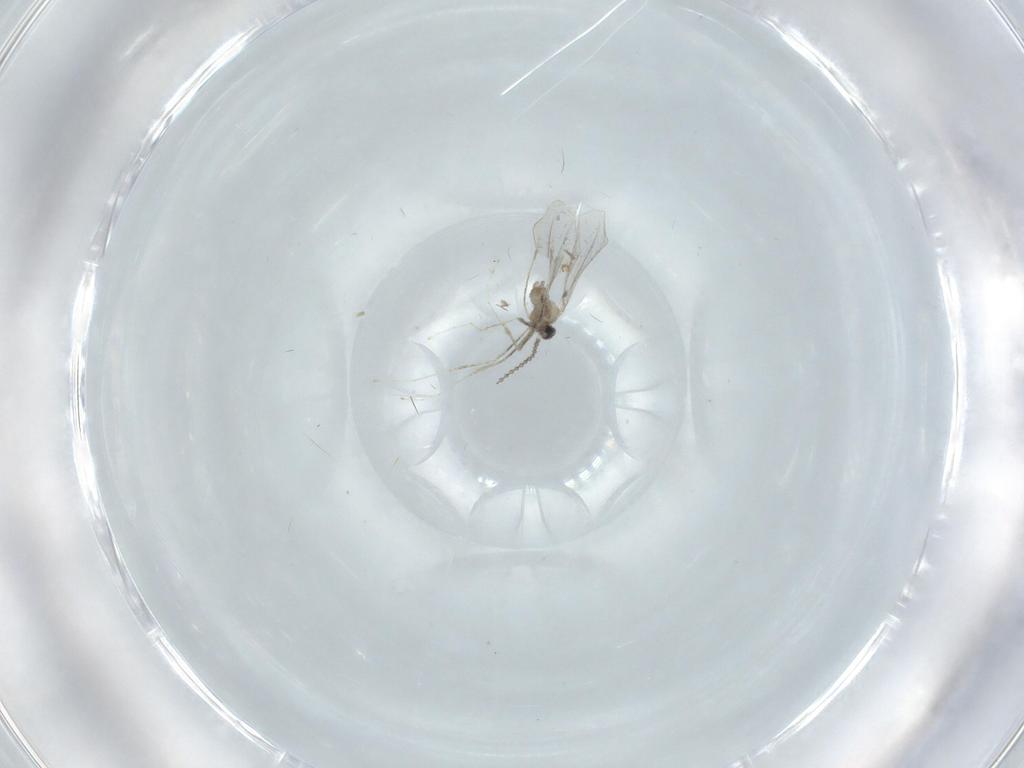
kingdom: Animalia
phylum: Arthropoda
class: Insecta
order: Diptera
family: Cecidomyiidae
